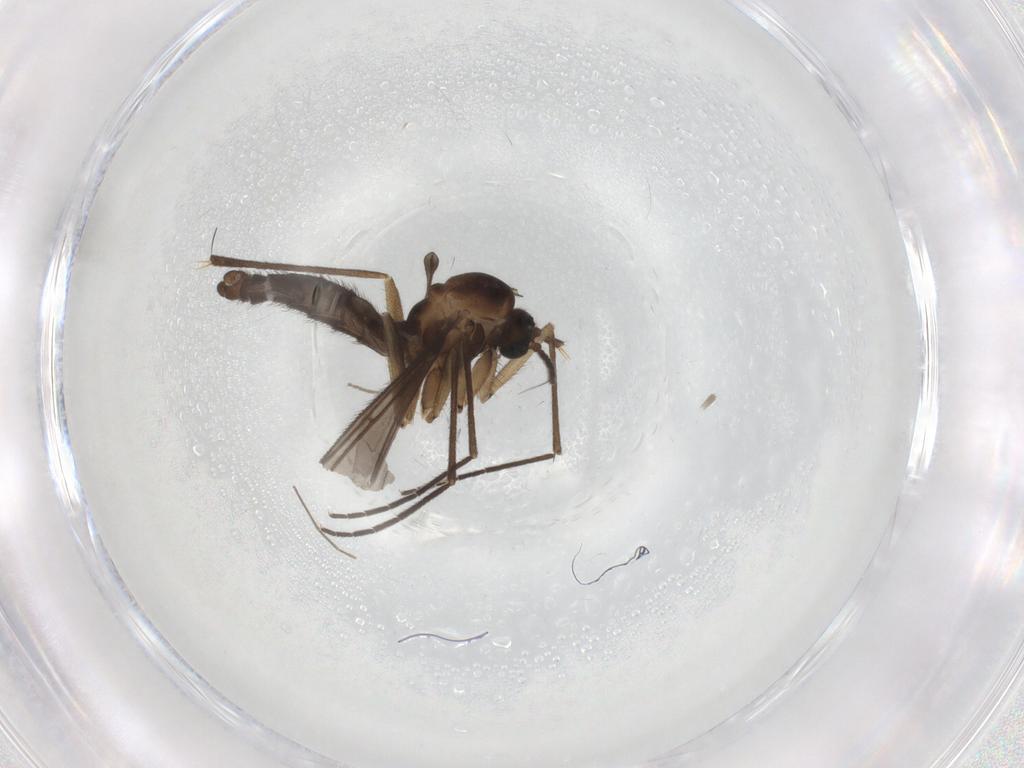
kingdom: Animalia
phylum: Arthropoda
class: Insecta
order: Diptera
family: Sciaridae
